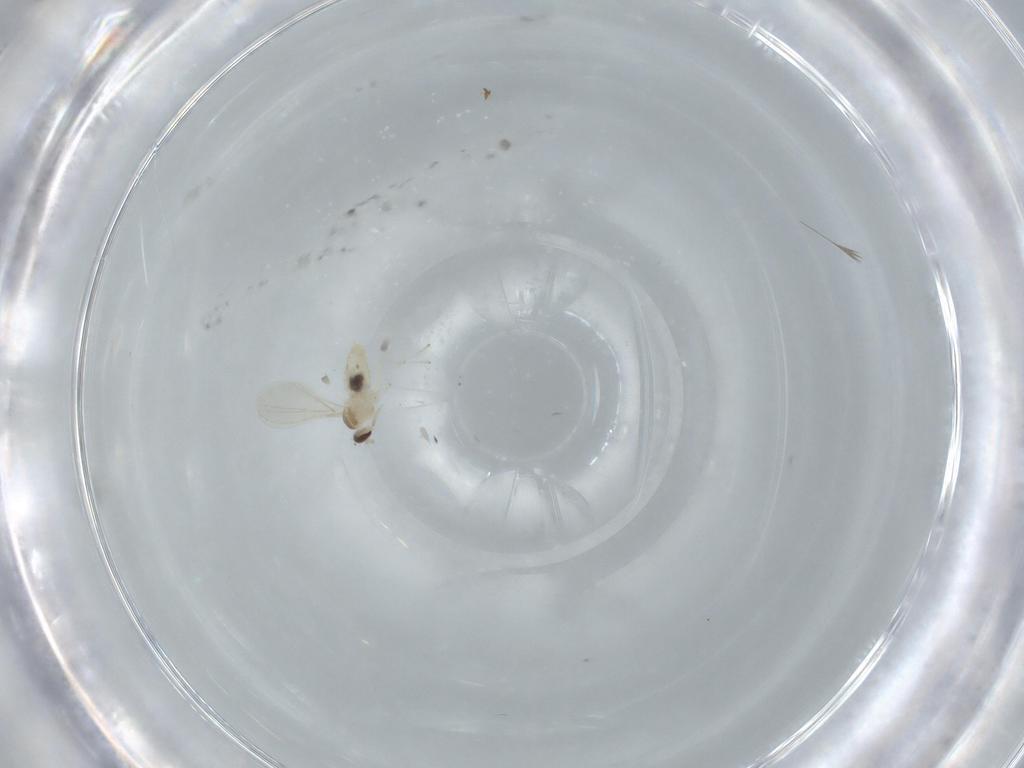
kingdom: Animalia
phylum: Arthropoda
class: Insecta
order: Diptera
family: Cecidomyiidae
